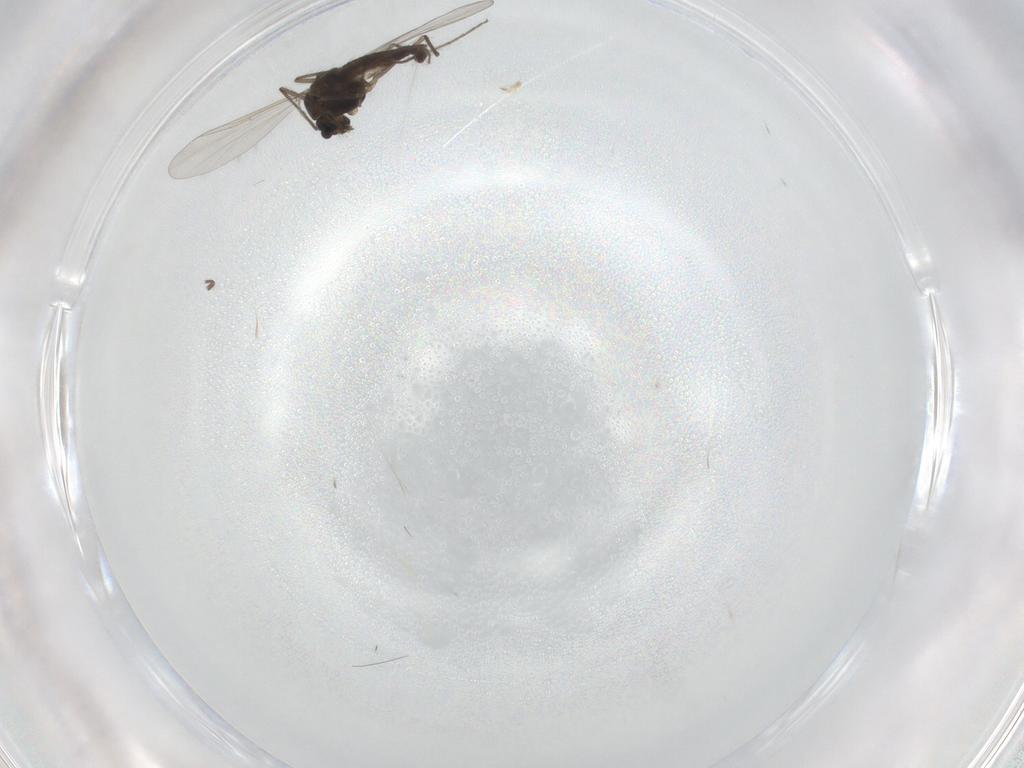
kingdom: Animalia
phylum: Arthropoda
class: Insecta
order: Diptera
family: Chironomidae
